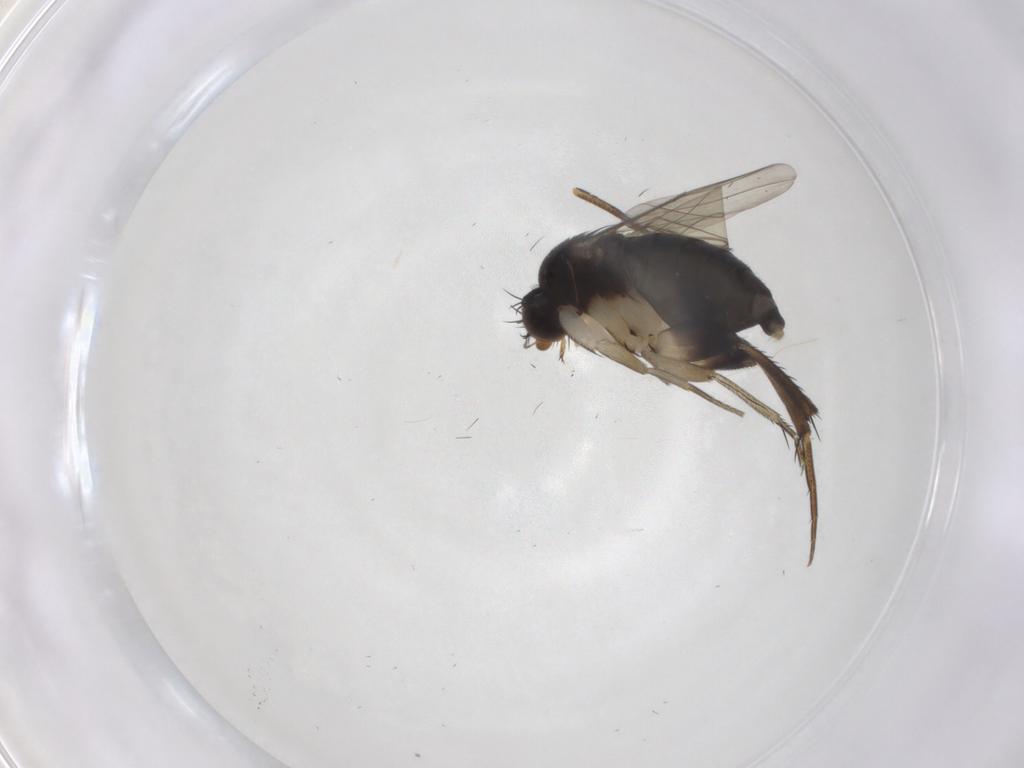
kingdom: Animalia
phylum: Arthropoda
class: Insecta
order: Diptera
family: Phoridae
